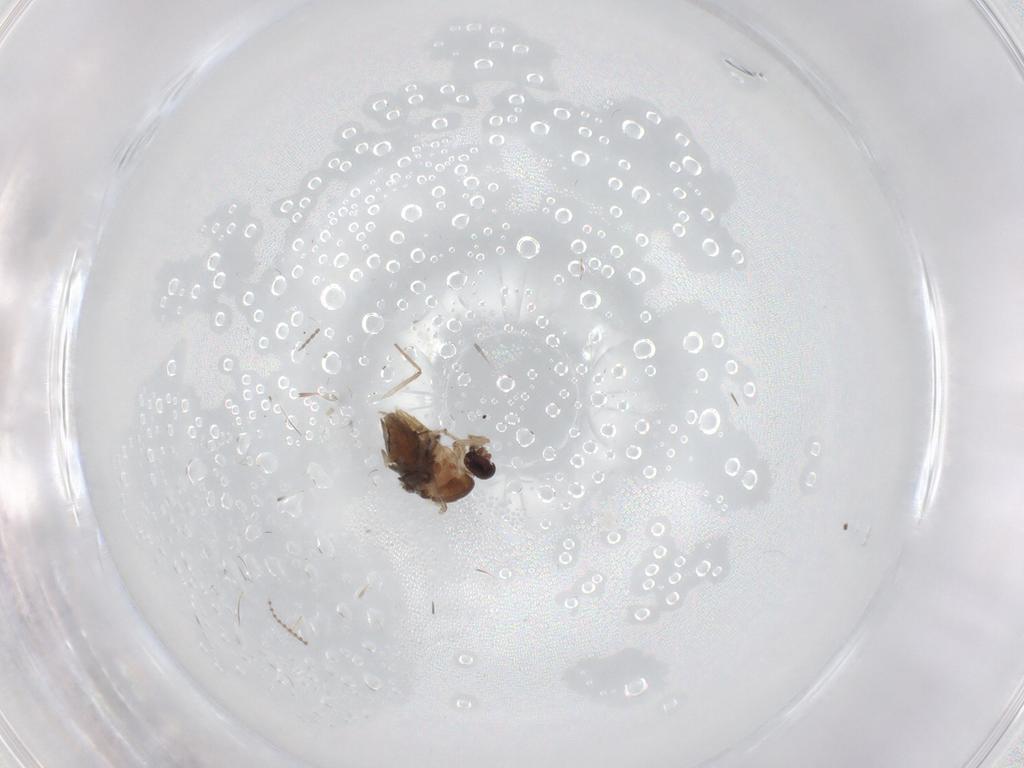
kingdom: Animalia
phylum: Arthropoda
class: Insecta
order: Diptera
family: Chironomidae
